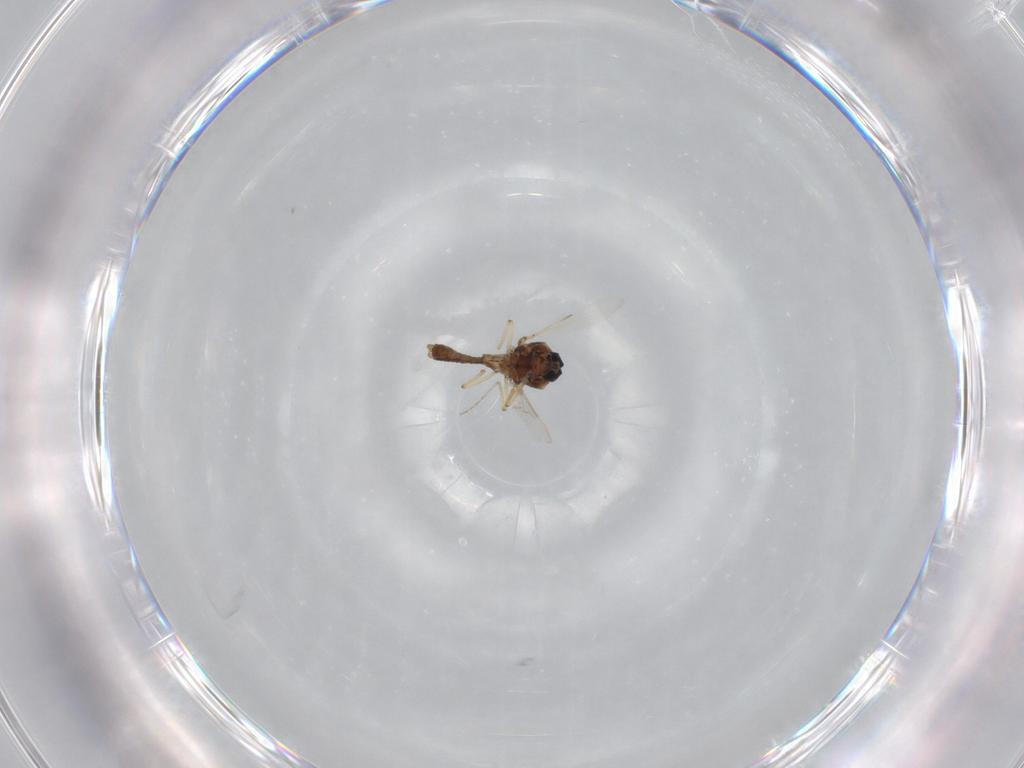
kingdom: Animalia
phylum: Arthropoda
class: Insecta
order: Diptera
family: Ceratopogonidae
